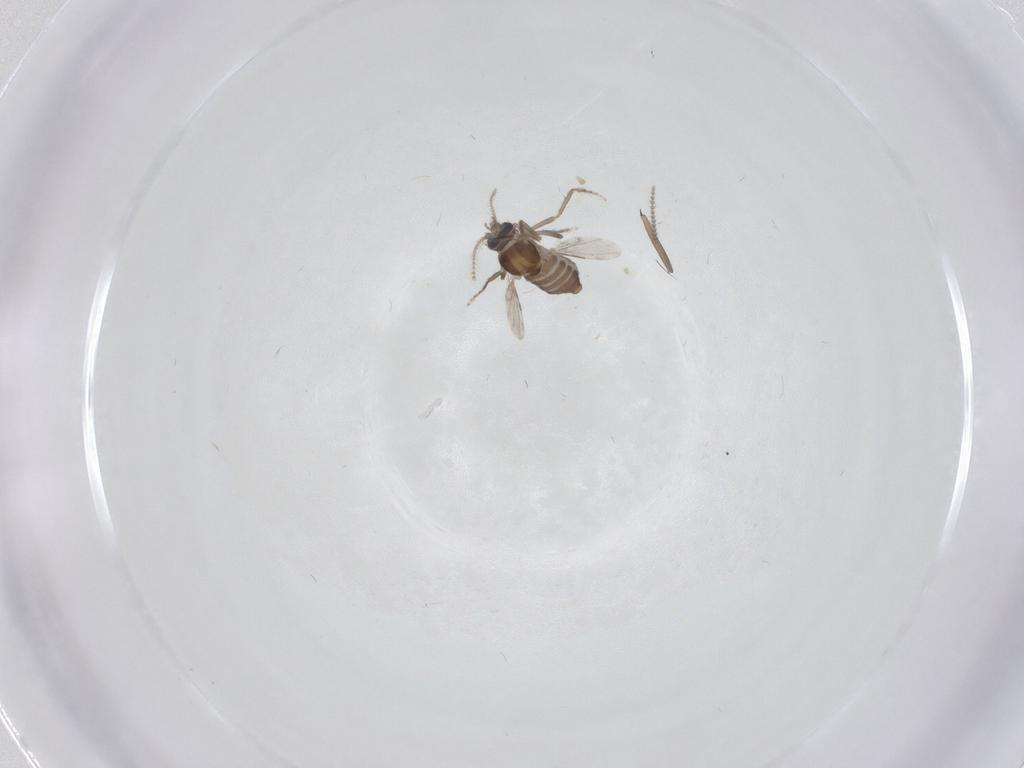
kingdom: Animalia
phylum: Arthropoda
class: Insecta
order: Diptera
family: Ceratopogonidae
